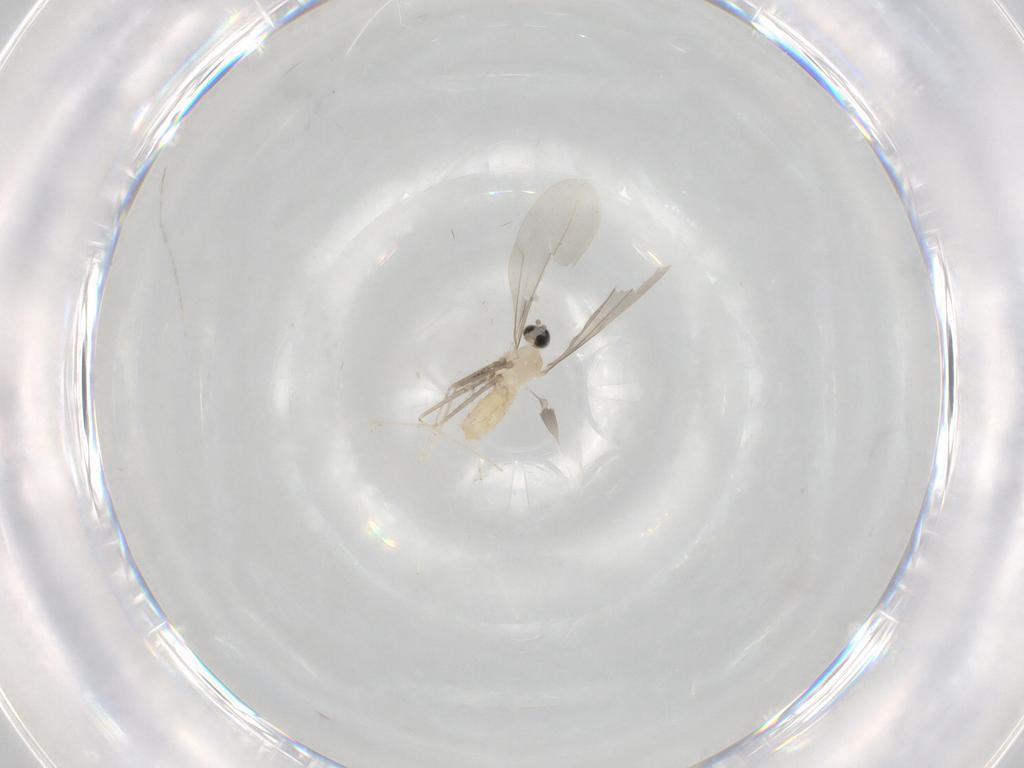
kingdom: Animalia
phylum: Arthropoda
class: Insecta
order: Diptera
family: Cecidomyiidae
